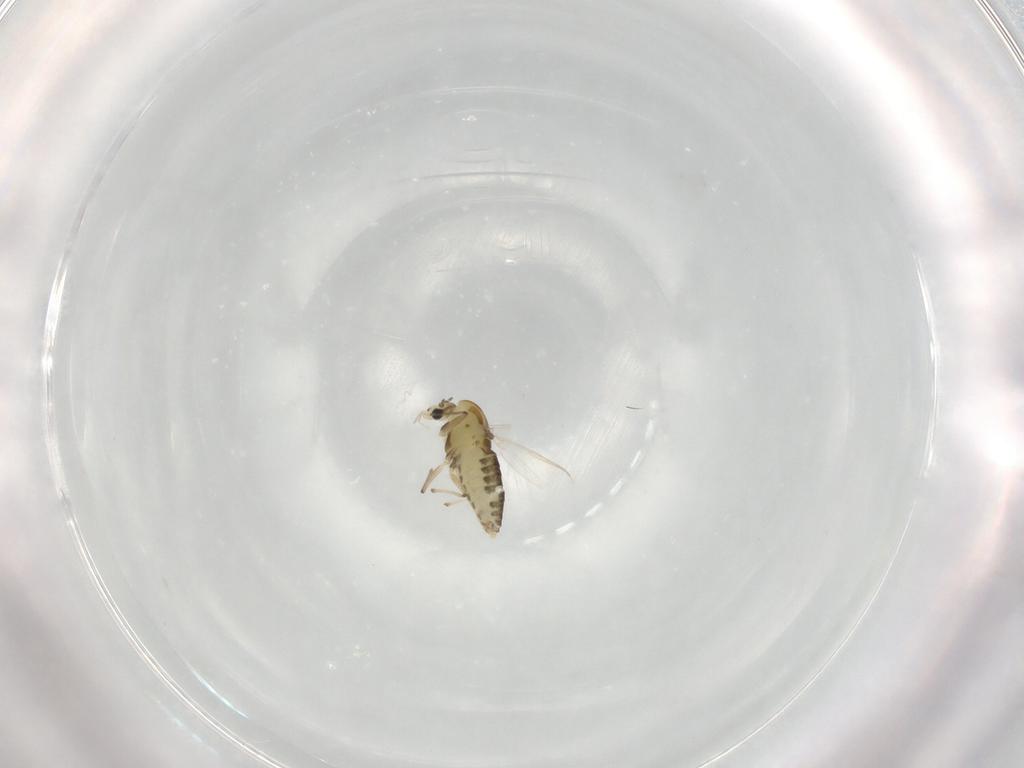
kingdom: Animalia
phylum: Arthropoda
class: Insecta
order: Diptera
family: Chironomidae
